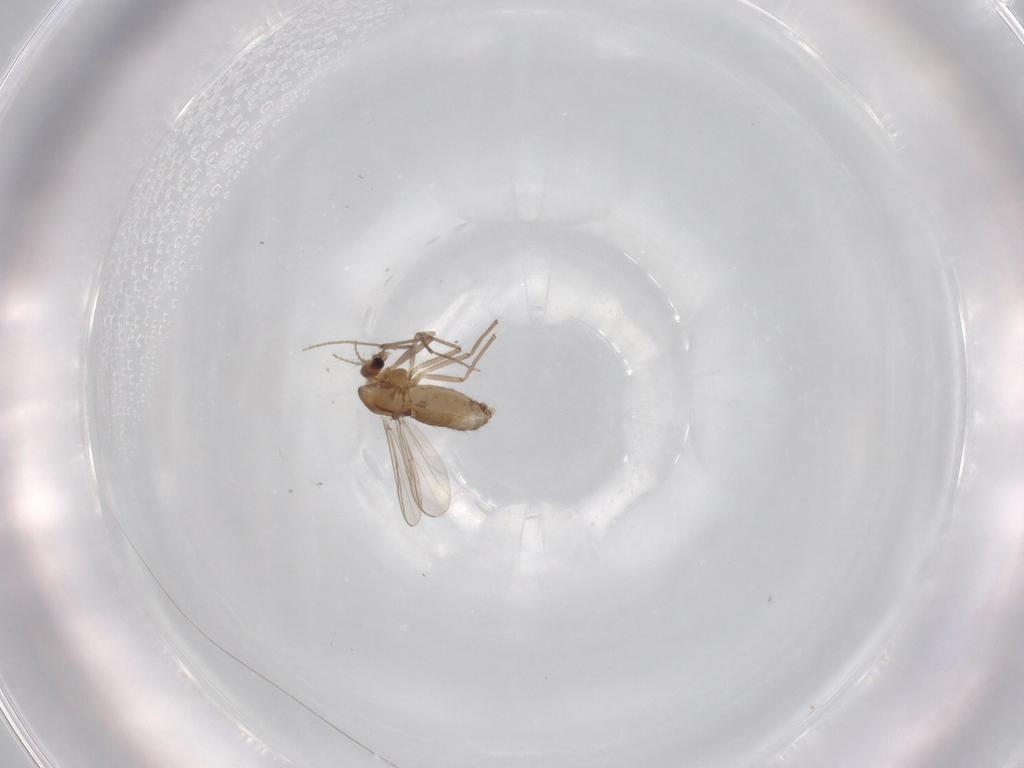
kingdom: Animalia
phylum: Arthropoda
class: Insecta
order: Diptera
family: Chironomidae
